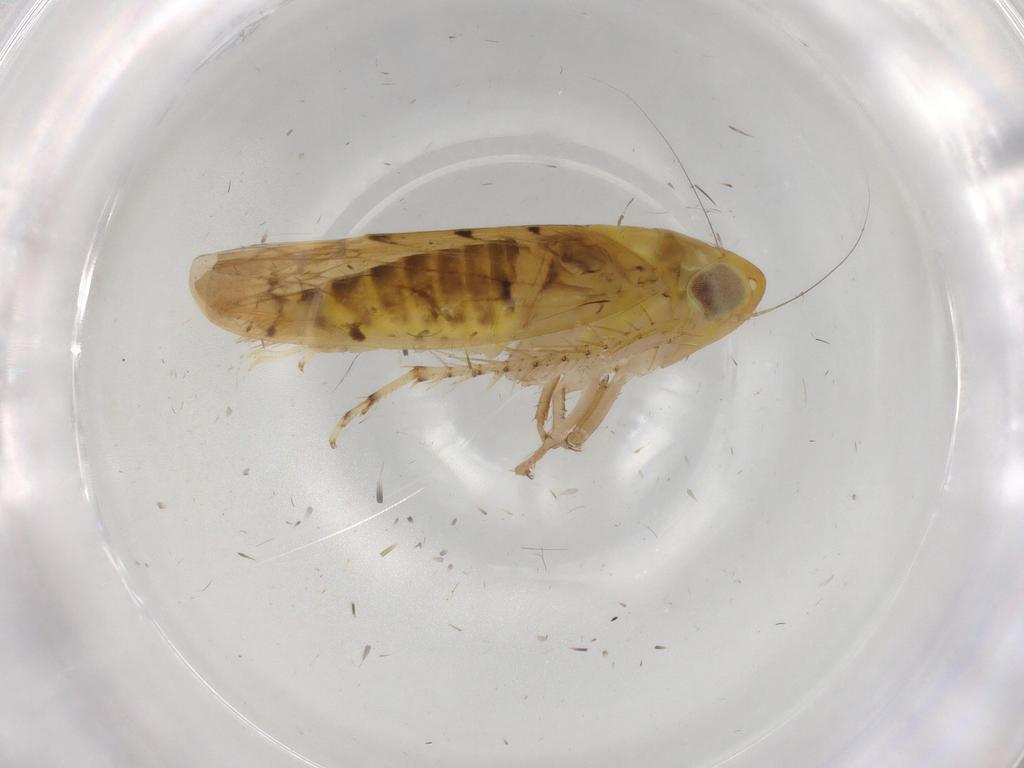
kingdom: Animalia
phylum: Arthropoda
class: Insecta
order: Hemiptera
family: Cicadellidae
